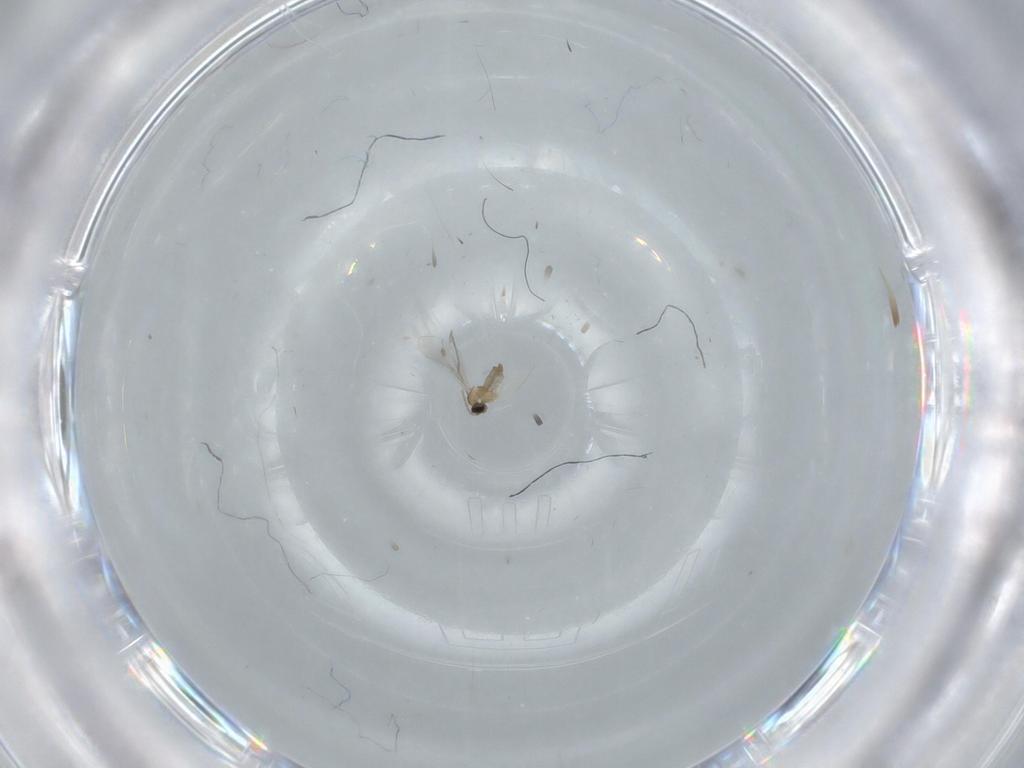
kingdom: Animalia
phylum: Arthropoda
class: Insecta
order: Diptera
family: Cecidomyiidae
